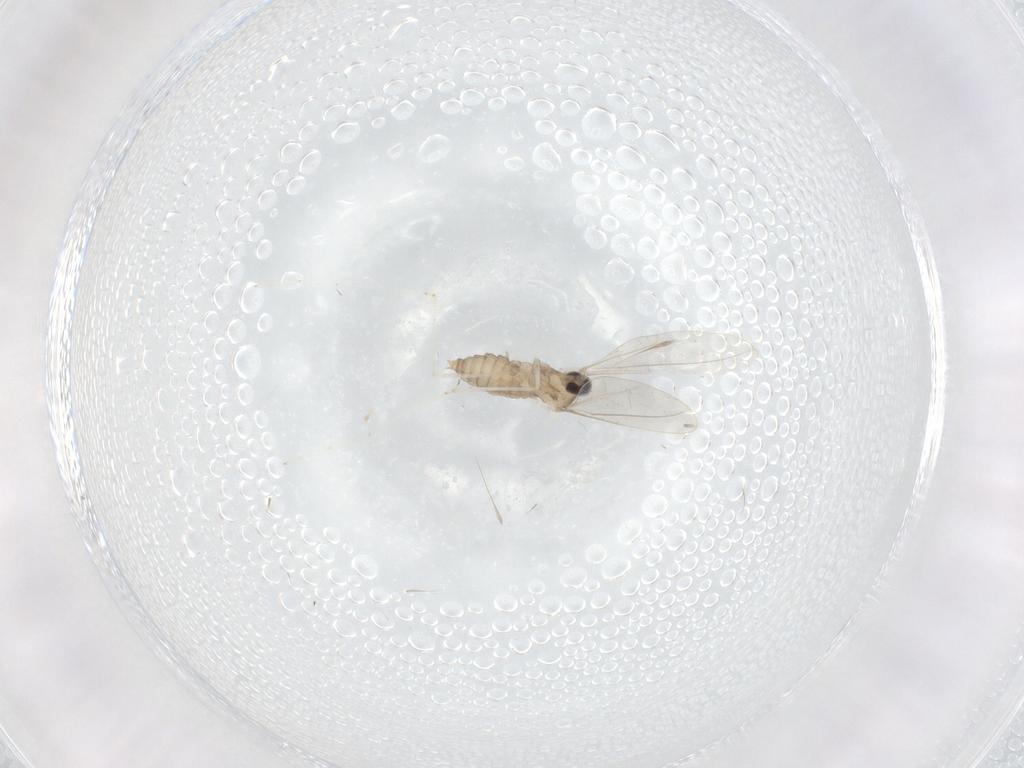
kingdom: Animalia
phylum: Arthropoda
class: Insecta
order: Diptera
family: Cecidomyiidae
